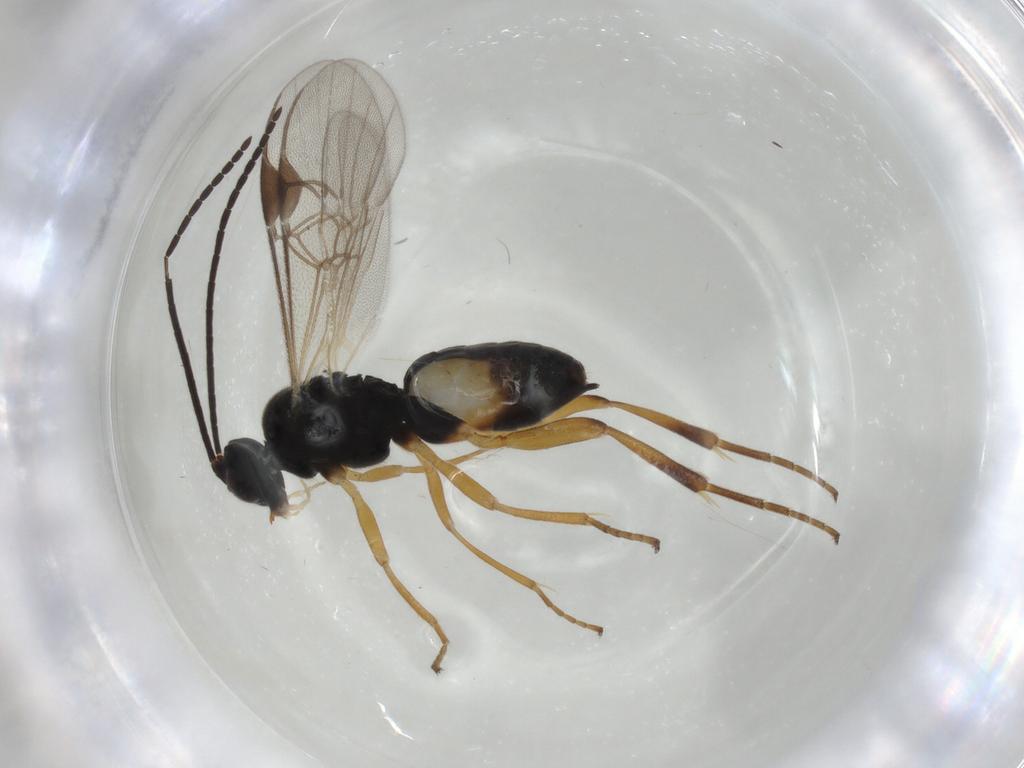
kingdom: Animalia
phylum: Arthropoda
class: Insecta
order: Hymenoptera
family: Braconidae
